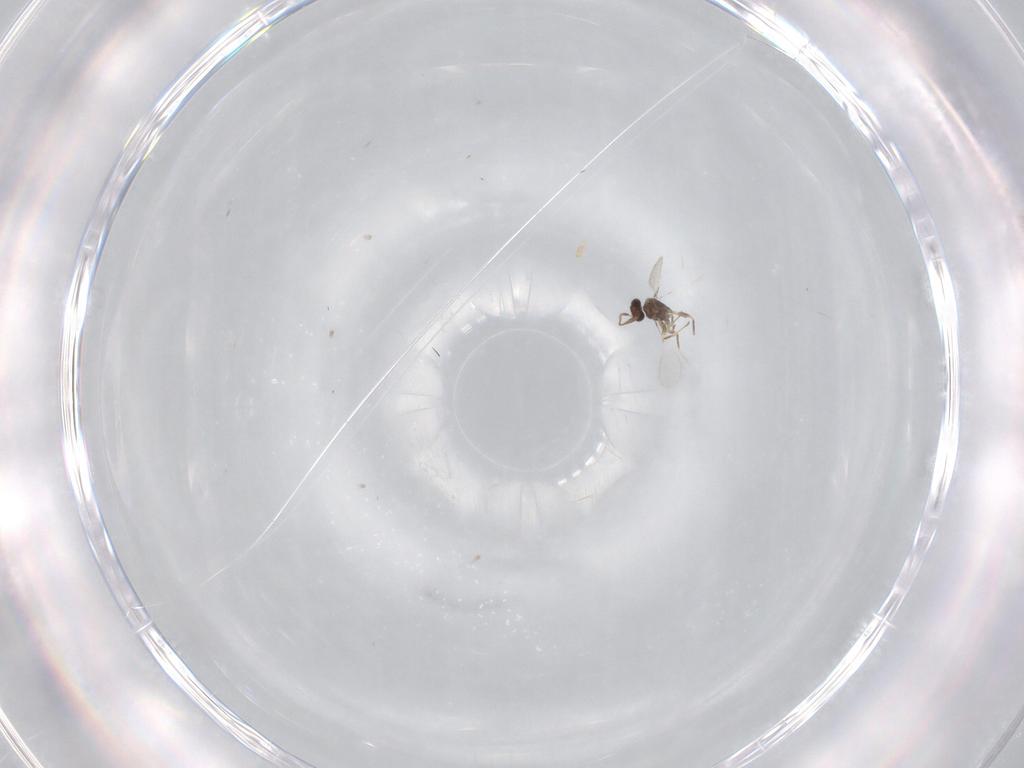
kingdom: Animalia
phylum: Arthropoda
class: Insecta
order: Hymenoptera
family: Mymaridae
